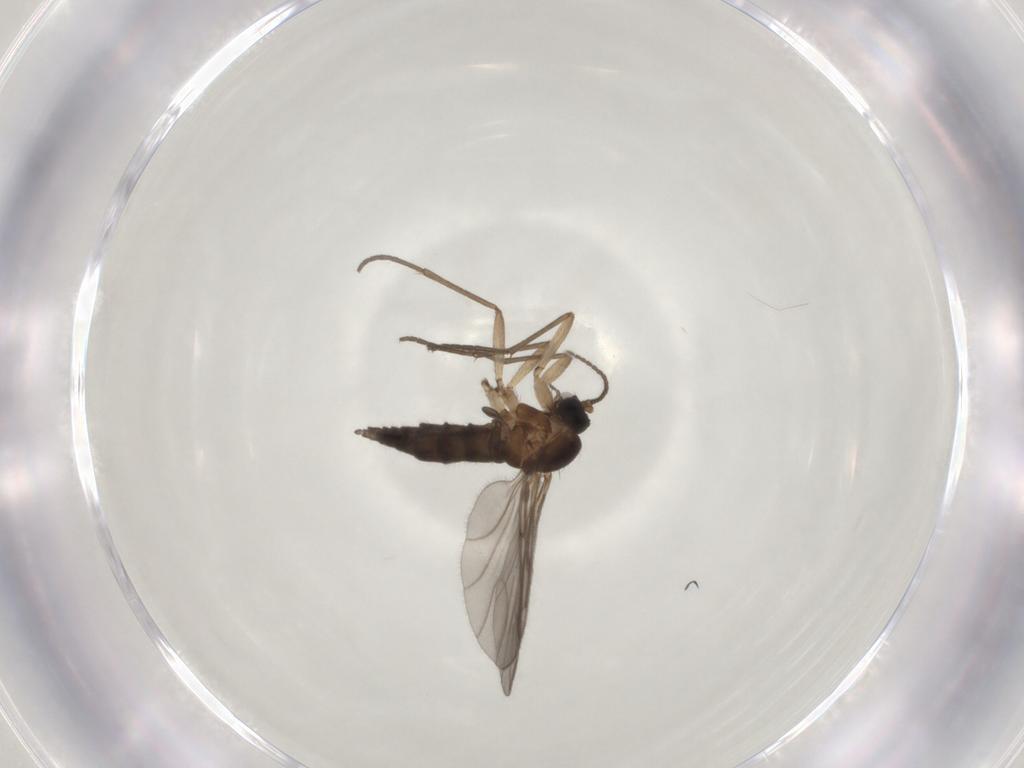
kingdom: Animalia
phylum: Arthropoda
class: Insecta
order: Diptera
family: Sciaridae
